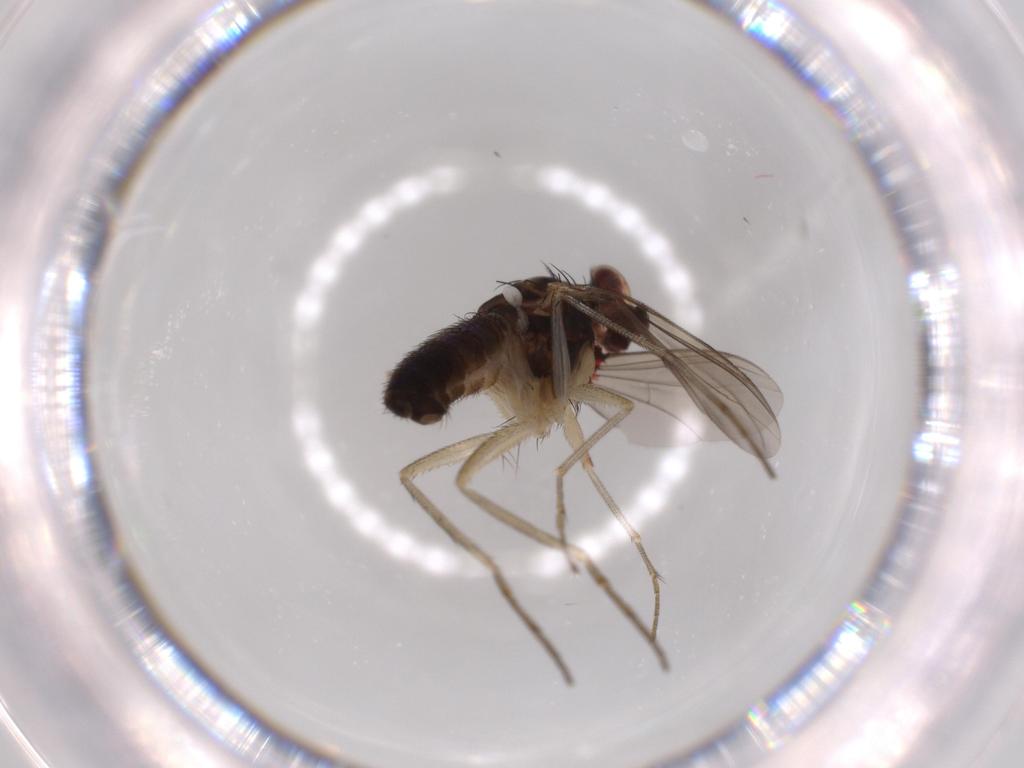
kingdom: Animalia
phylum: Arthropoda
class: Insecta
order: Diptera
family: Dolichopodidae
